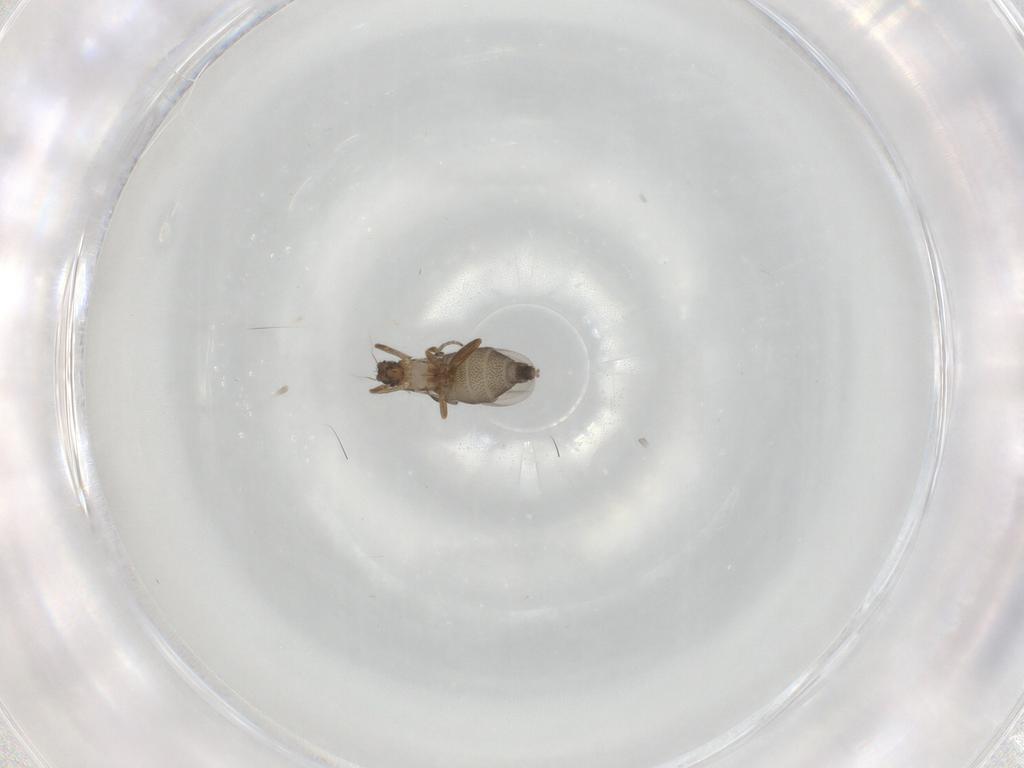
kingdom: Animalia
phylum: Arthropoda
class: Insecta
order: Diptera
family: Phoridae
